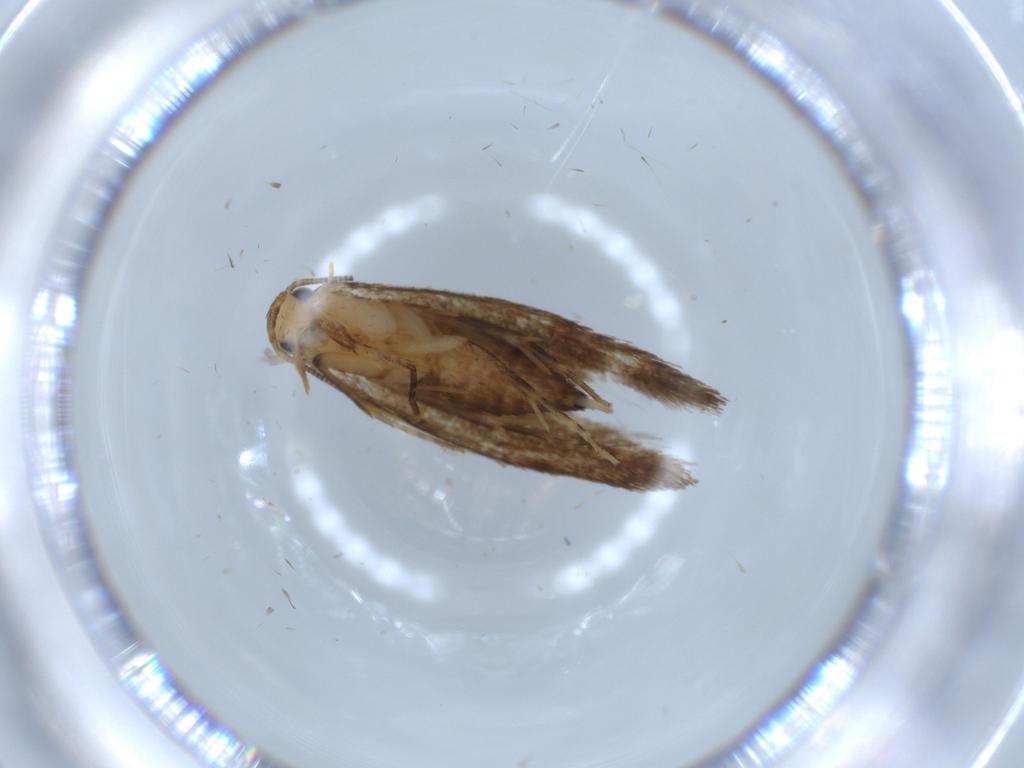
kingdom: Animalia
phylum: Arthropoda
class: Insecta
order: Lepidoptera
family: Tineidae
